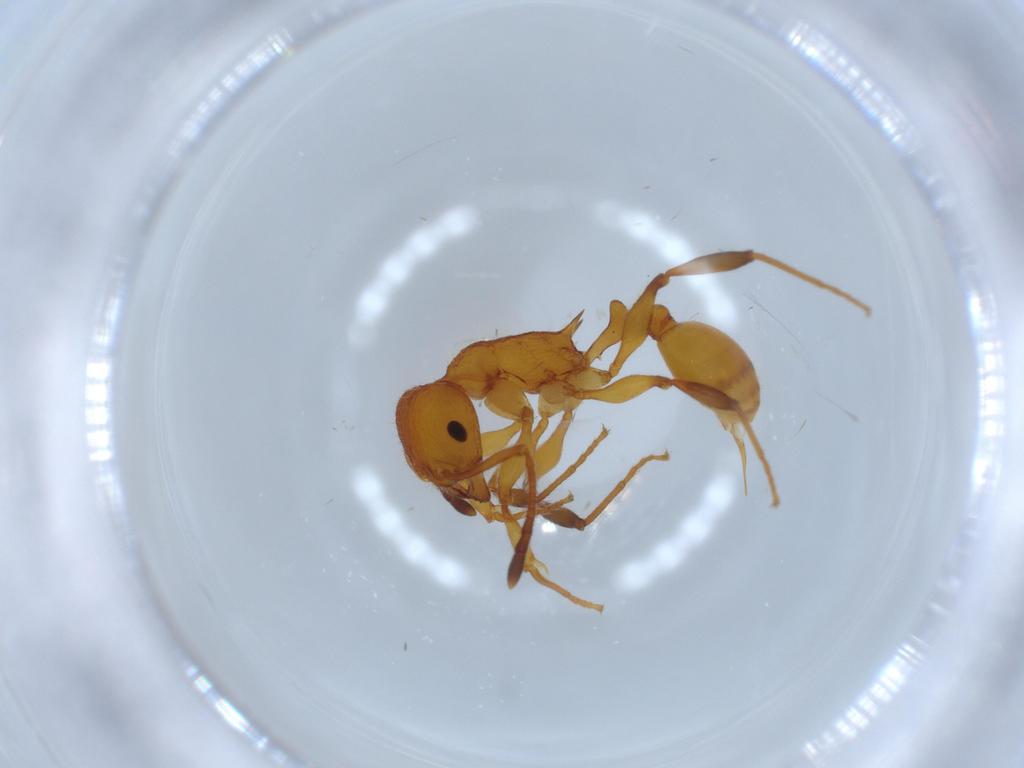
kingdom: Animalia
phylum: Arthropoda
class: Insecta
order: Hymenoptera
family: Formicidae
